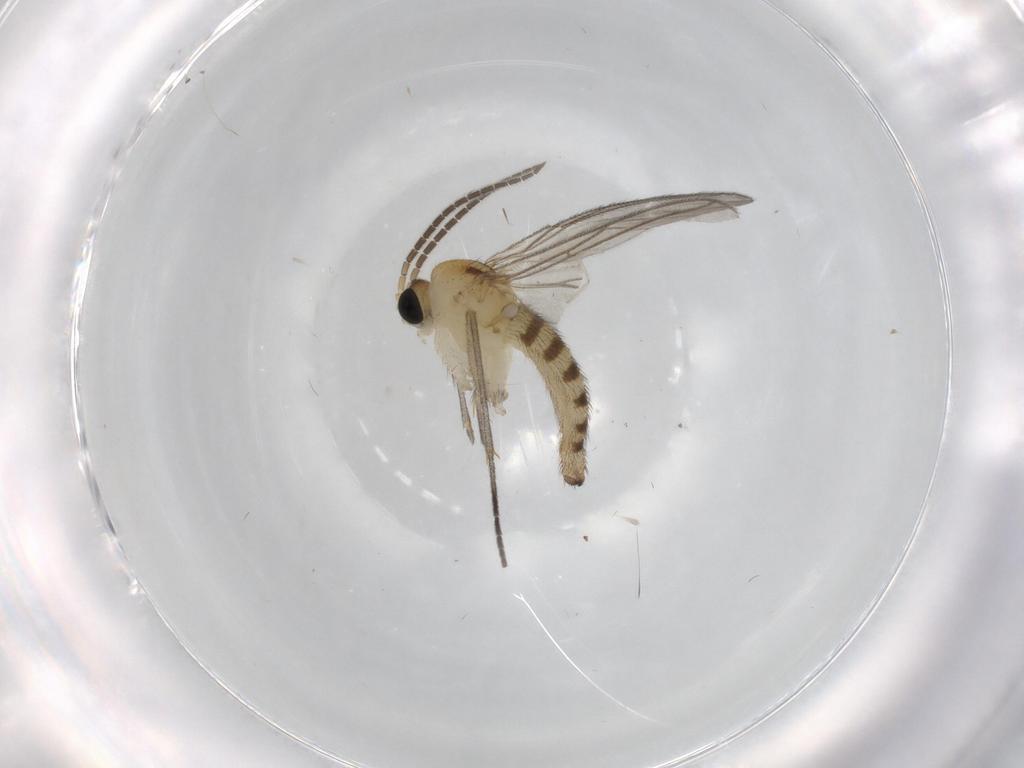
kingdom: Animalia
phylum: Arthropoda
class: Insecta
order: Diptera
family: Sciaridae
